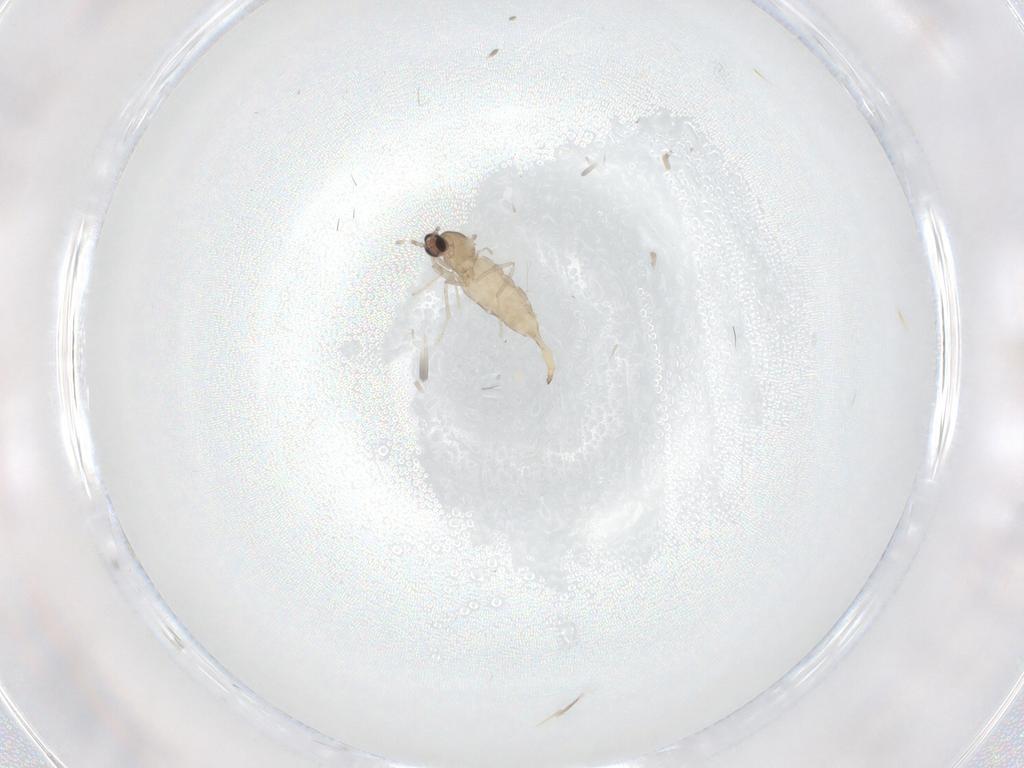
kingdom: Animalia
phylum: Arthropoda
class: Insecta
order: Diptera
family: Cecidomyiidae
